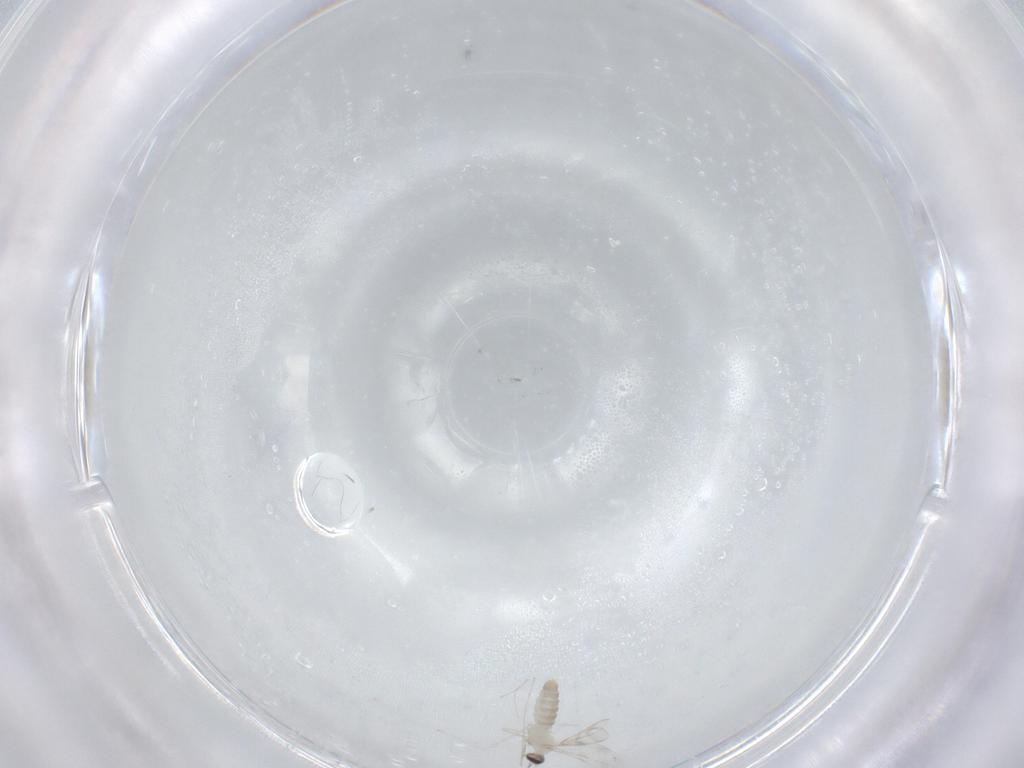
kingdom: Animalia
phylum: Arthropoda
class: Insecta
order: Diptera
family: Cecidomyiidae
